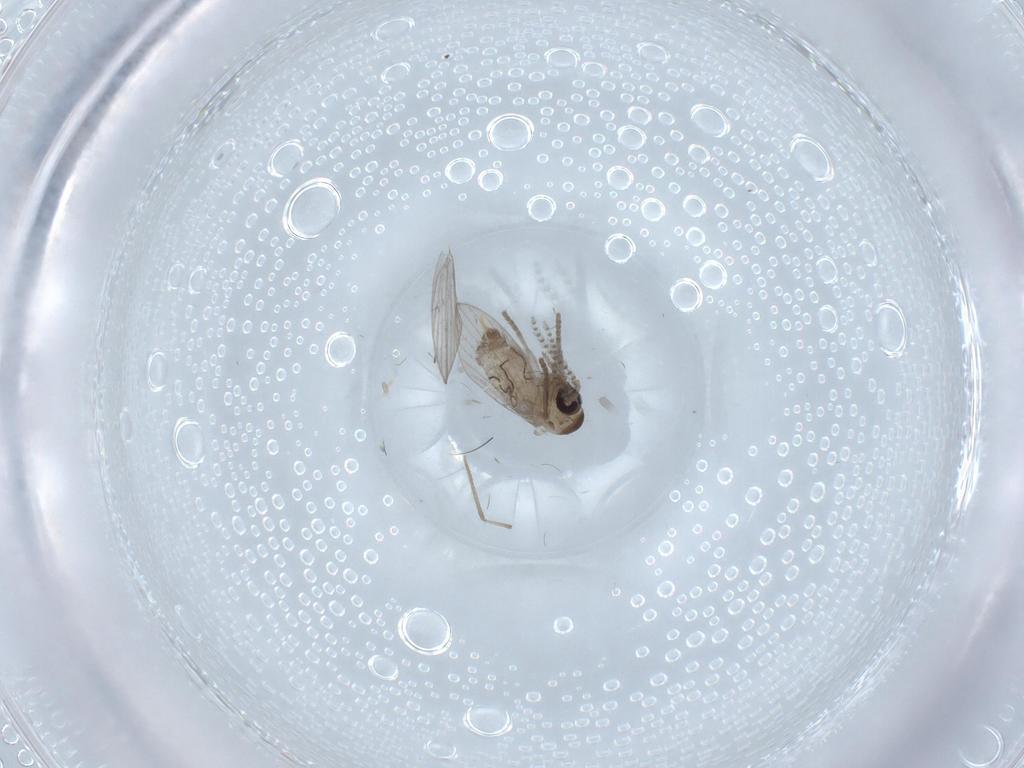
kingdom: Animalia
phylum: Arthropoda
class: Insecta
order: Diptera
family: Psychodidae
